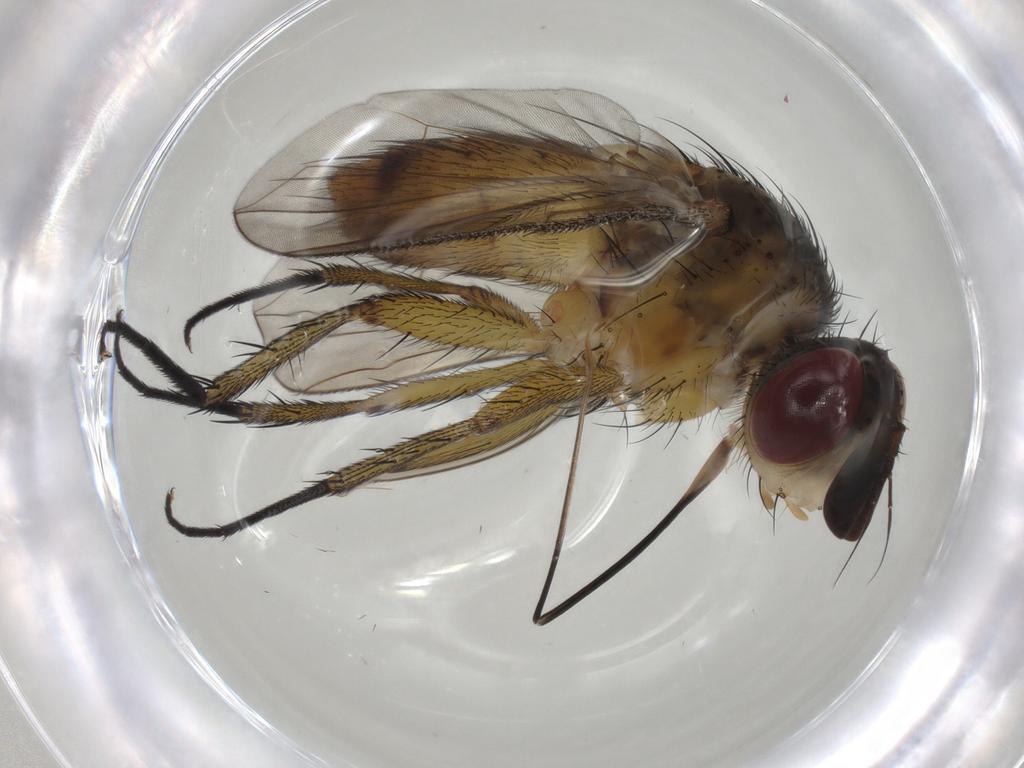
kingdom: Animalia
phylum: Arthropoda
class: Insecta
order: Diptera
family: Tachinidae
